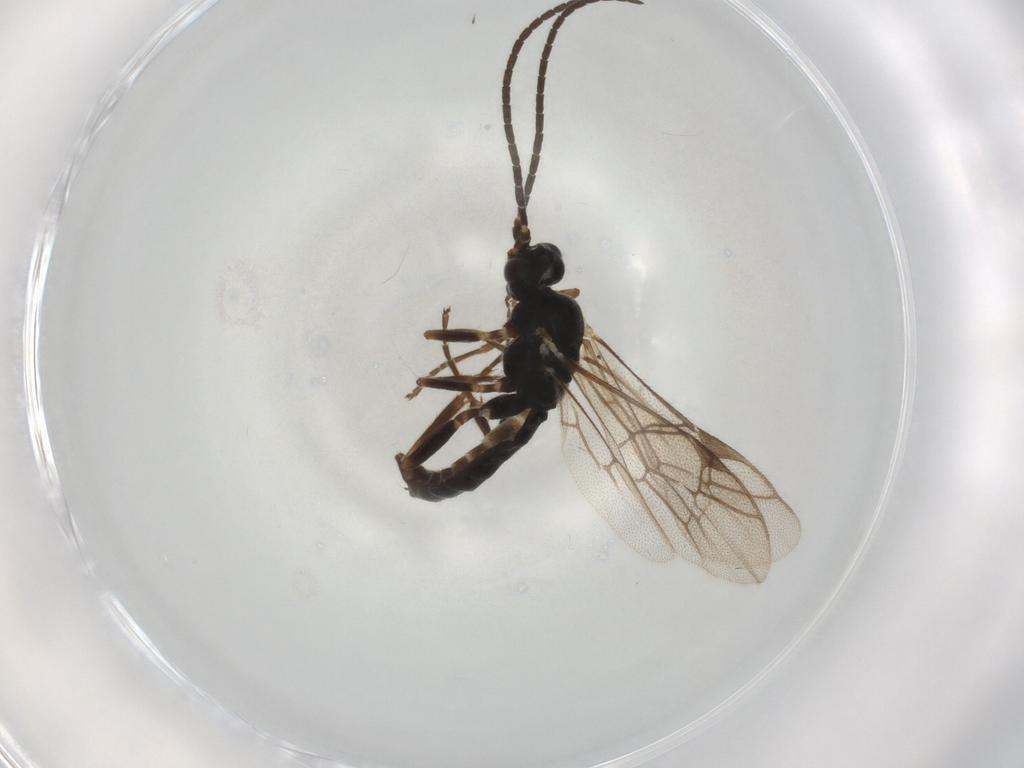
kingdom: Animalia
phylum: Arthropoda
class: Insecta
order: Hymenoptera
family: Ichneumonidae
